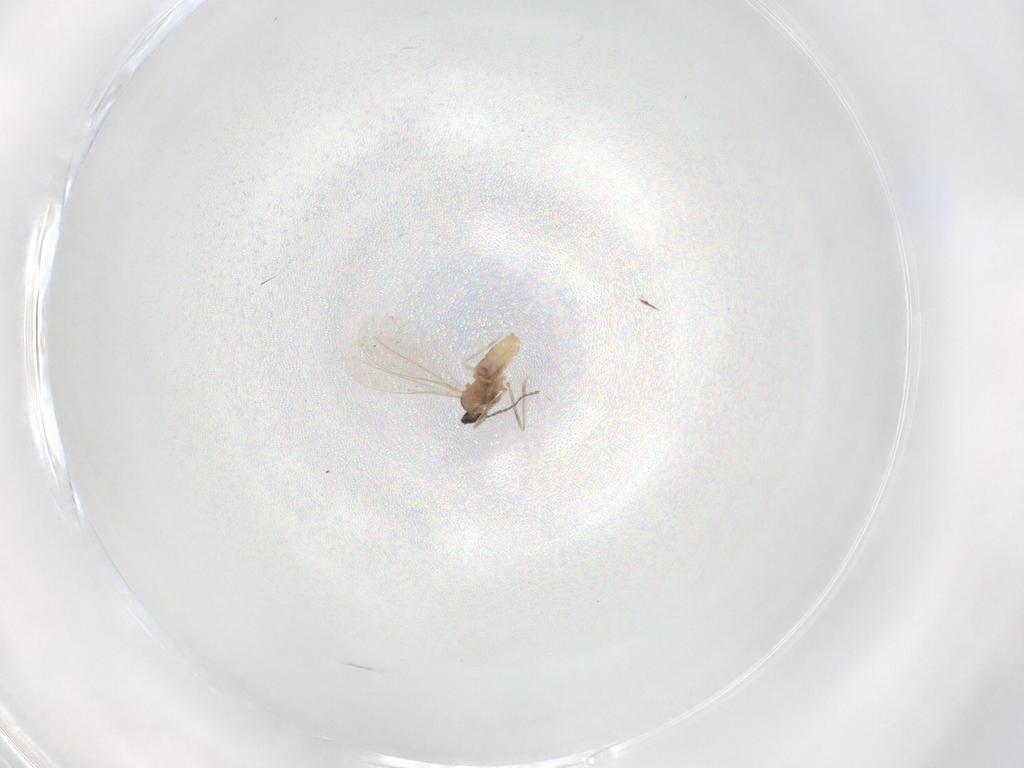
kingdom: Animalia
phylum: Arthropoda
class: Insecta
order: Diptera
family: Cecidomyiidae
